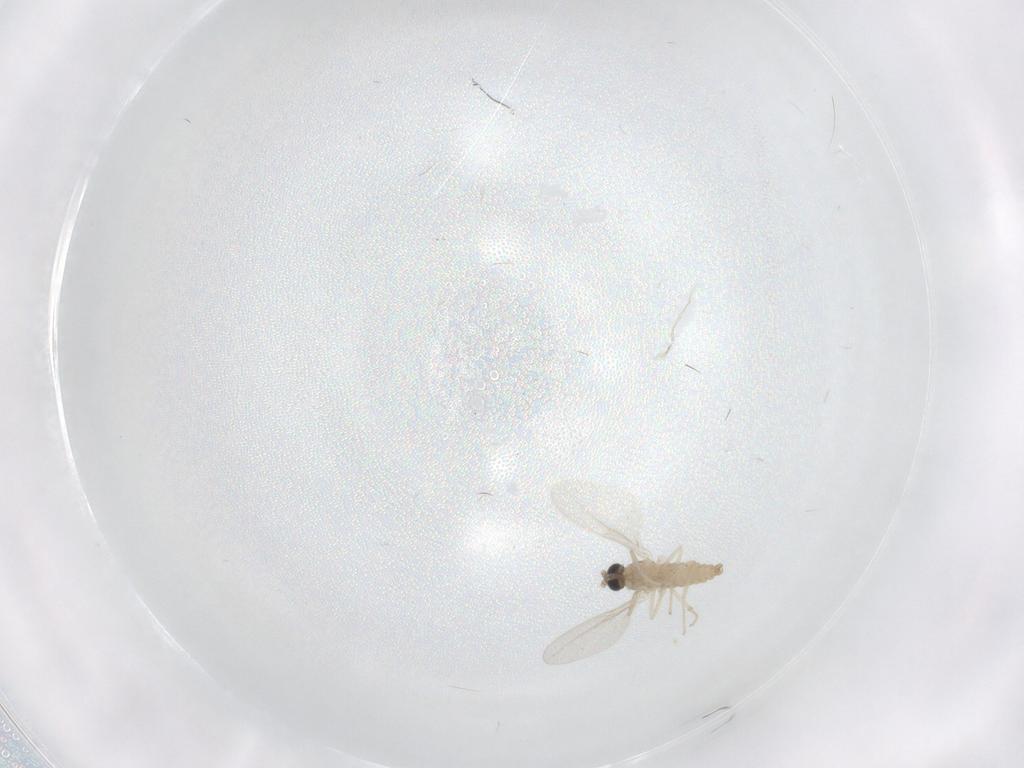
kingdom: Animalia
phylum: Arthropoda
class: Insecta
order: Diptera
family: Cecidomyiidae
